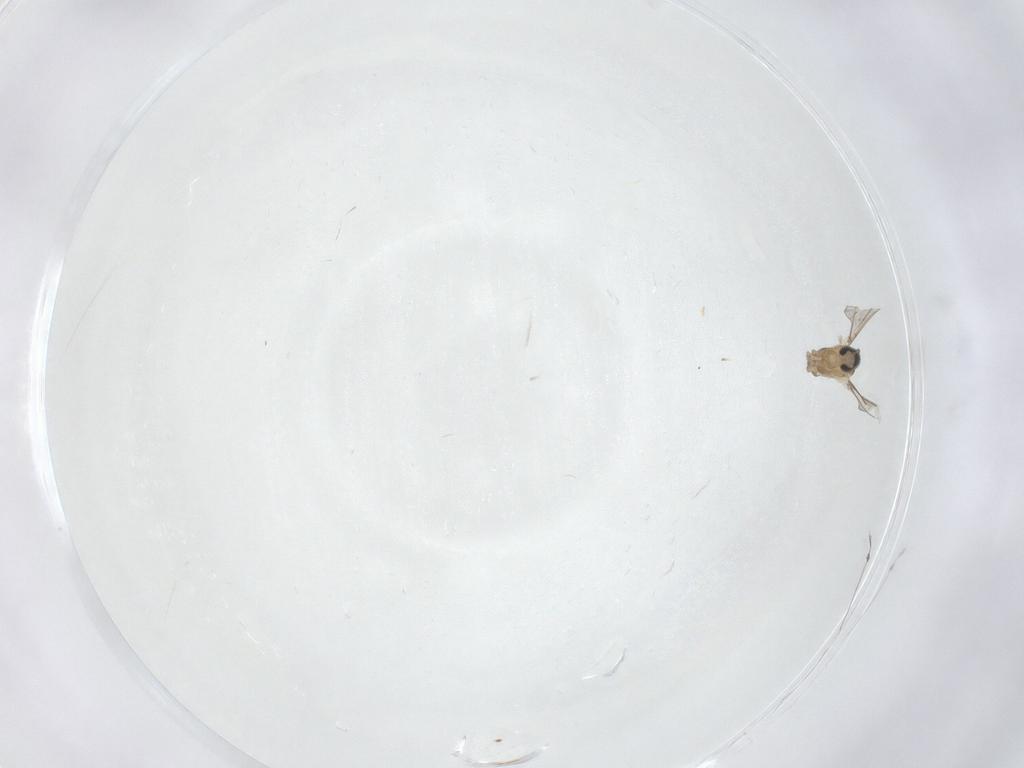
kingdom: Animalia
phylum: Arthropoda
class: Insecta
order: Diptera
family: Cecidomyiidae
